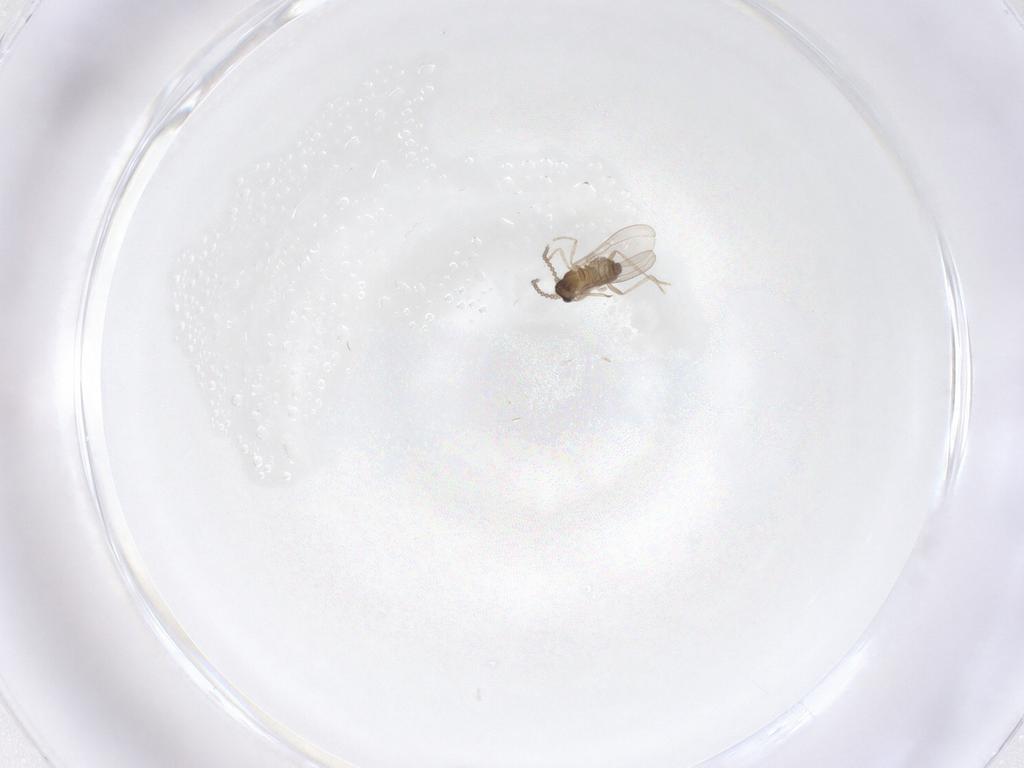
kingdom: Animalia
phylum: Arthropoda
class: Insecta
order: Diptera
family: Cecidomyiidae
